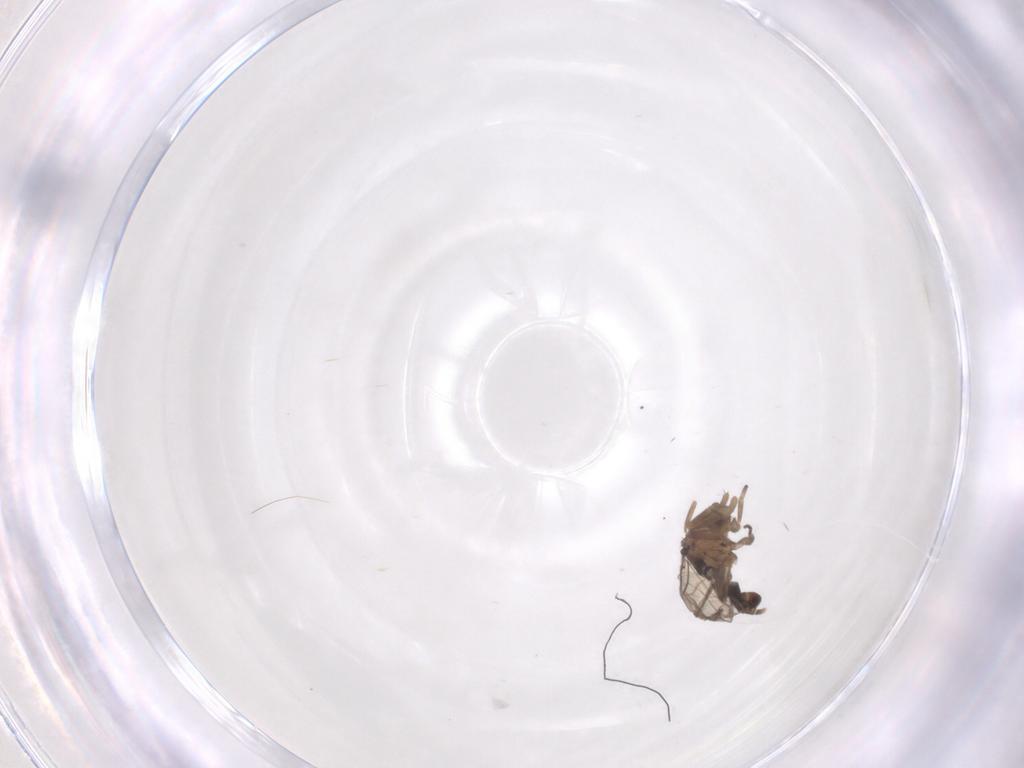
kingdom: Animalia
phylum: Arthropoda
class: Insecta
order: Diptera
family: Phoridae
